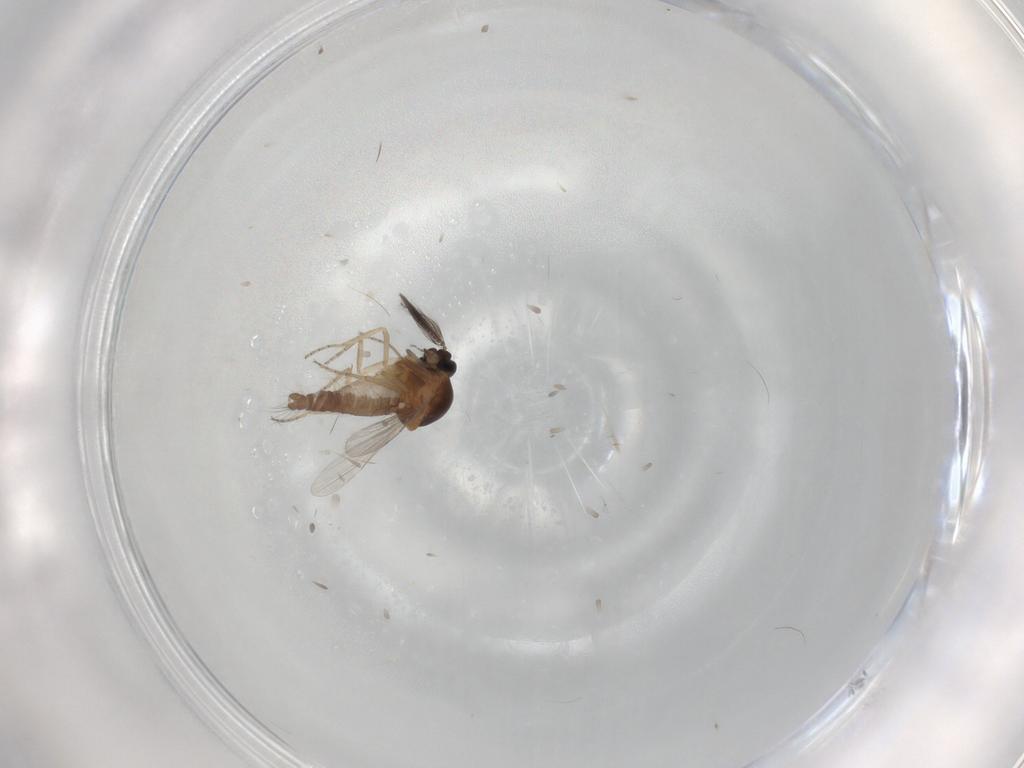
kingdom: Animalia
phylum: Arthropoda
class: Insecta
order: Diptera
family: Ceratopogonidae
